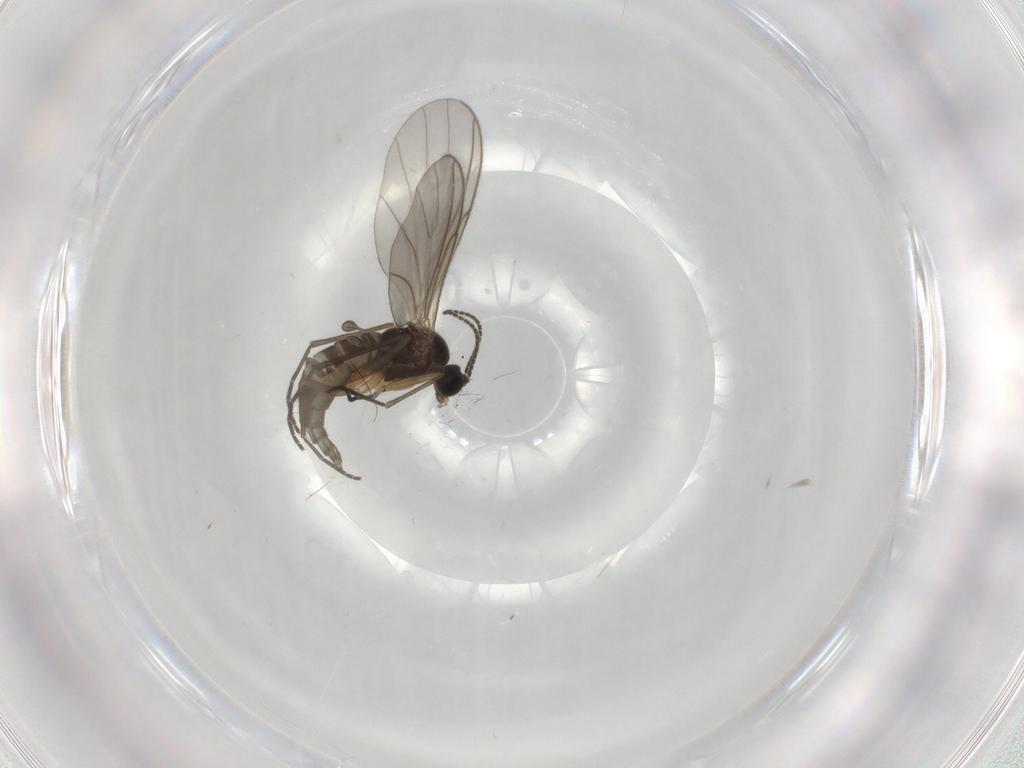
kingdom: Animalia
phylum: Arthropoda
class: Insecta
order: Diptera
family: Sciaridae
